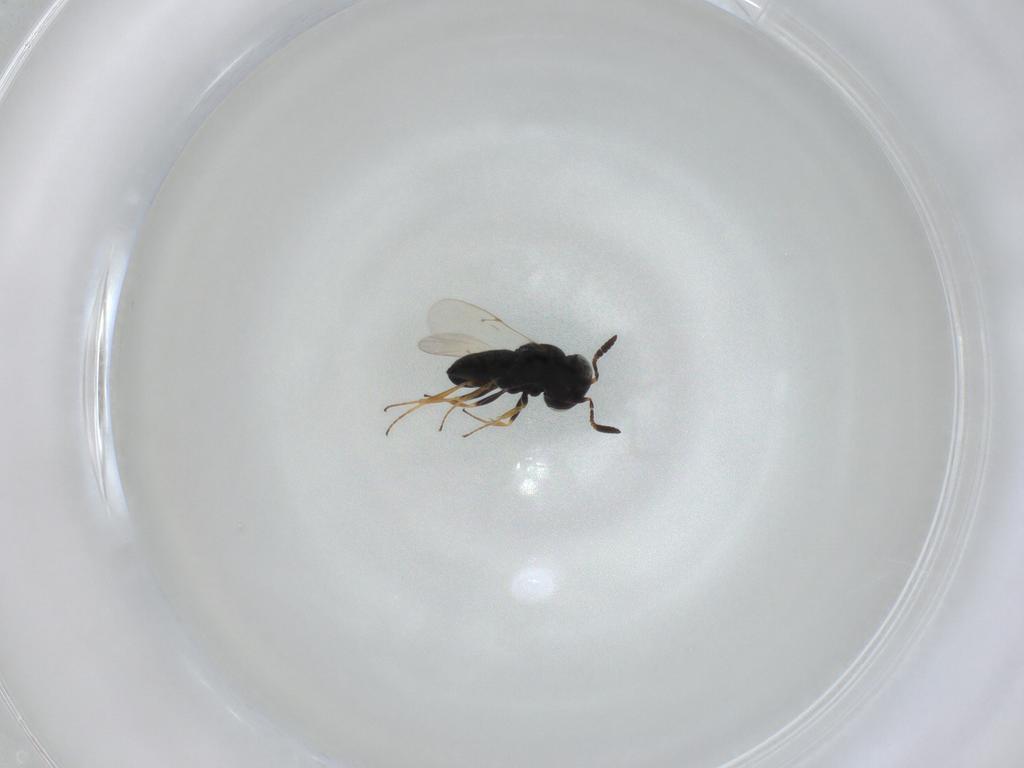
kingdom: Animalia
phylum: Arthropoda
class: Insecta
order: Hymenoptera
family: Scelionidae
